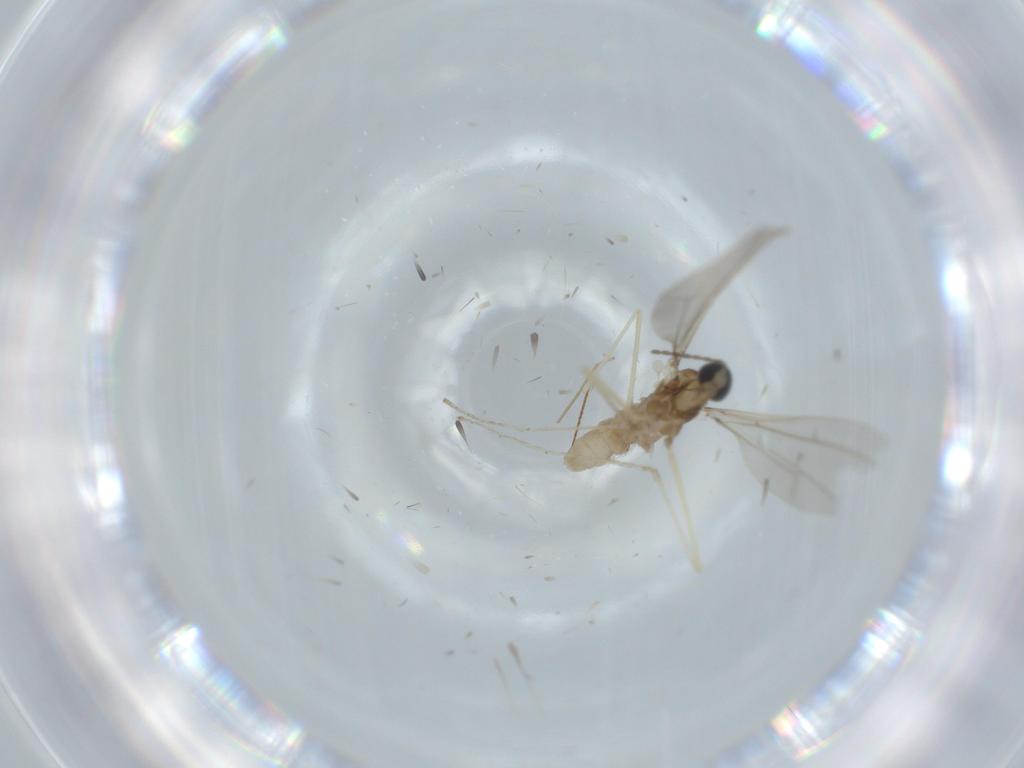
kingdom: Animalia
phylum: Arthropoda
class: Insecta
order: Diptera
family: Cecidomyiidae
